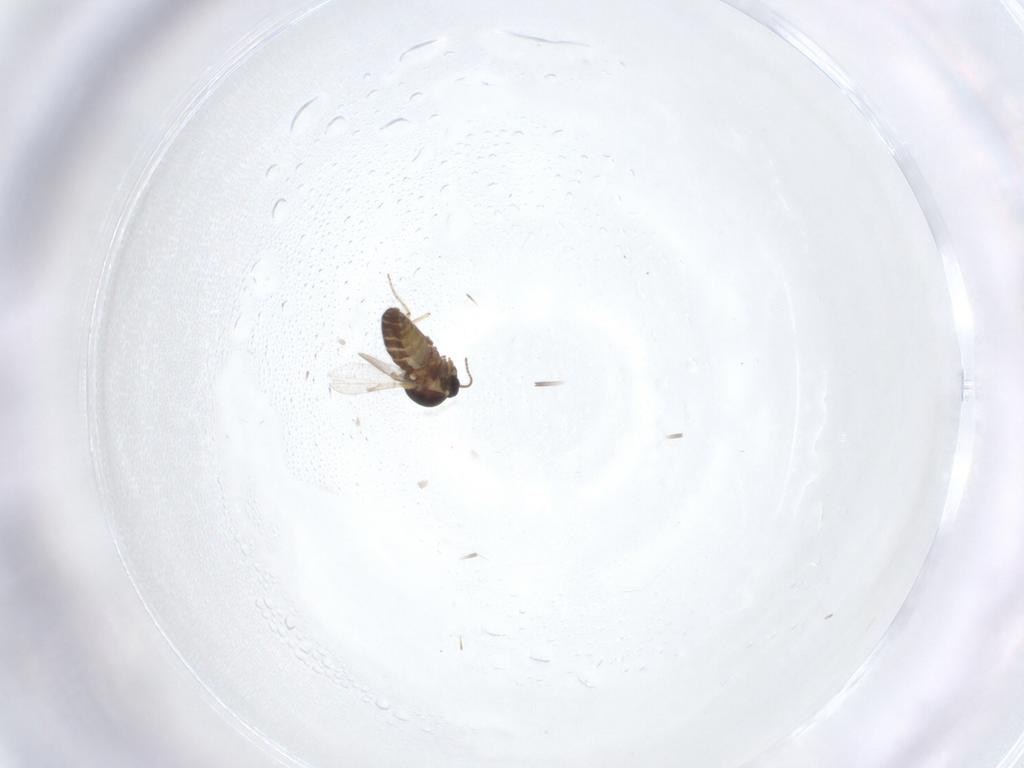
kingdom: Animalia
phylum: Arthropoda
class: Insecta
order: Diptera
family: Ceratopogonidae
